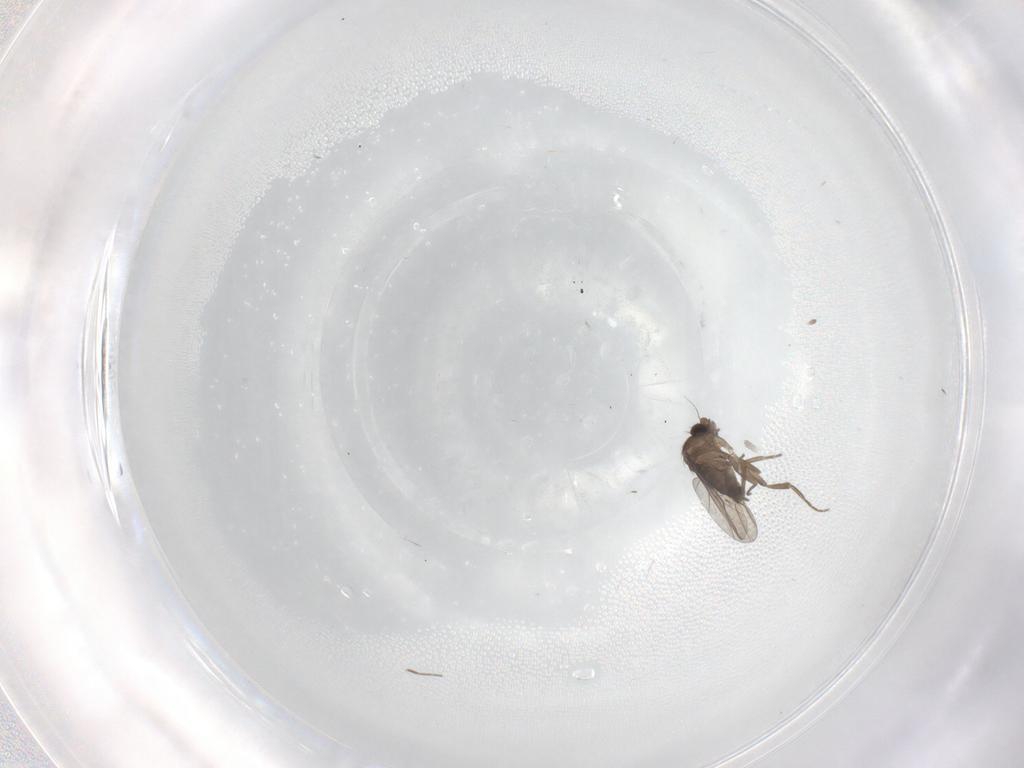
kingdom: Animalia
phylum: Arthropoda
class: Insecta
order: Diptera
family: Phoridae
